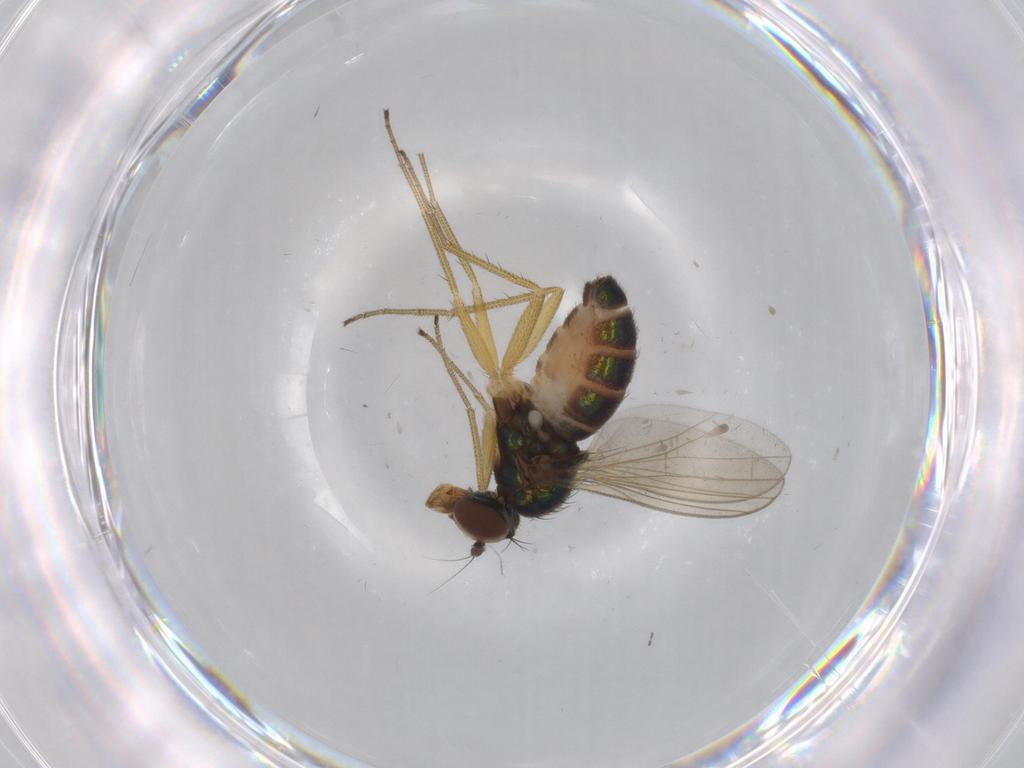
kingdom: Animalia
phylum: Arthropoda
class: Insecta
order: Diptera
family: Dolichopodidae
